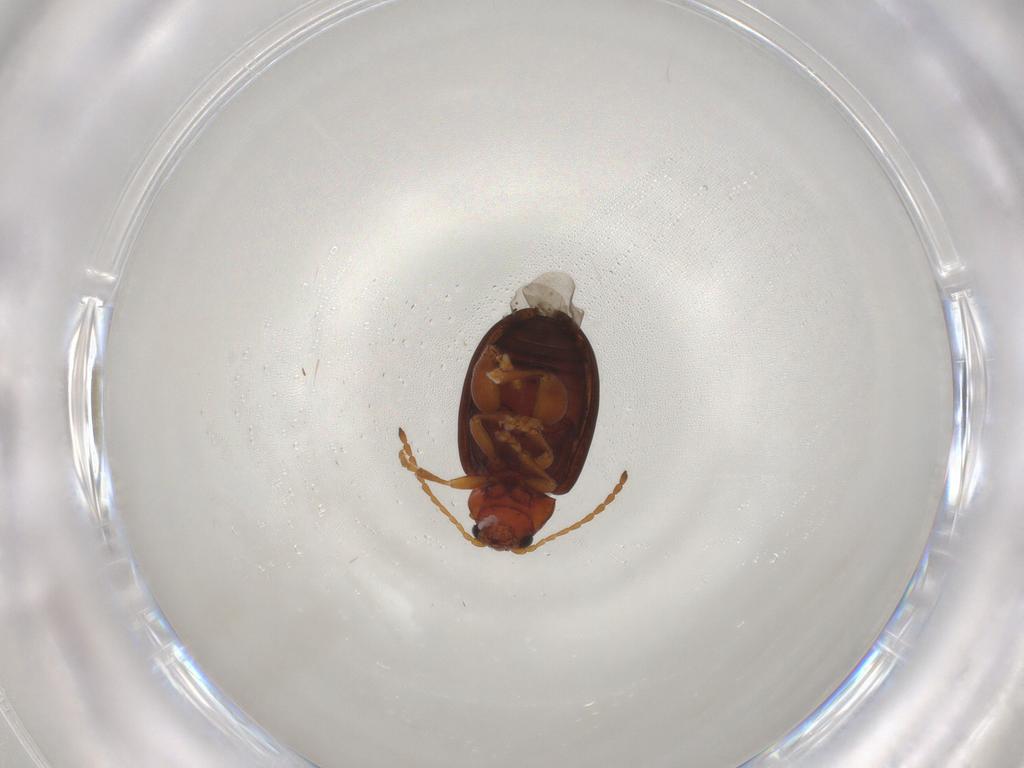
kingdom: Animalia
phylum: Arthropoda
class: Insecta
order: Coleoptera
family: Chrysomelidae
